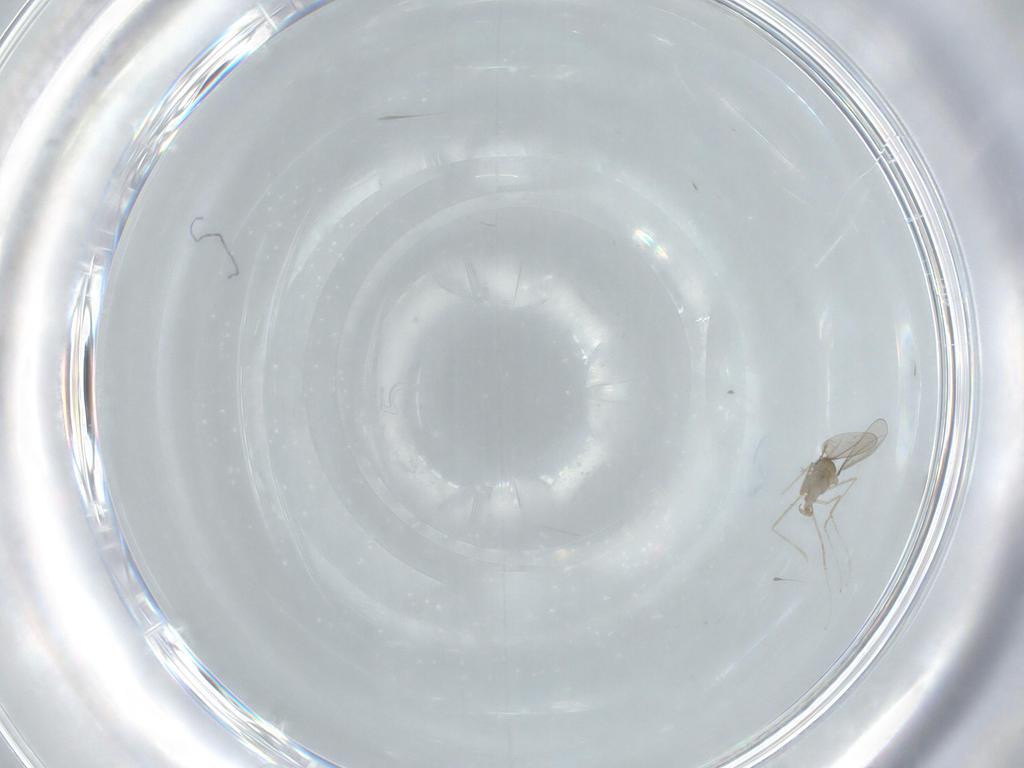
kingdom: Animalia
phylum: Arthropoda
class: Insecta
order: Diptera
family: Cecidomyiidae
